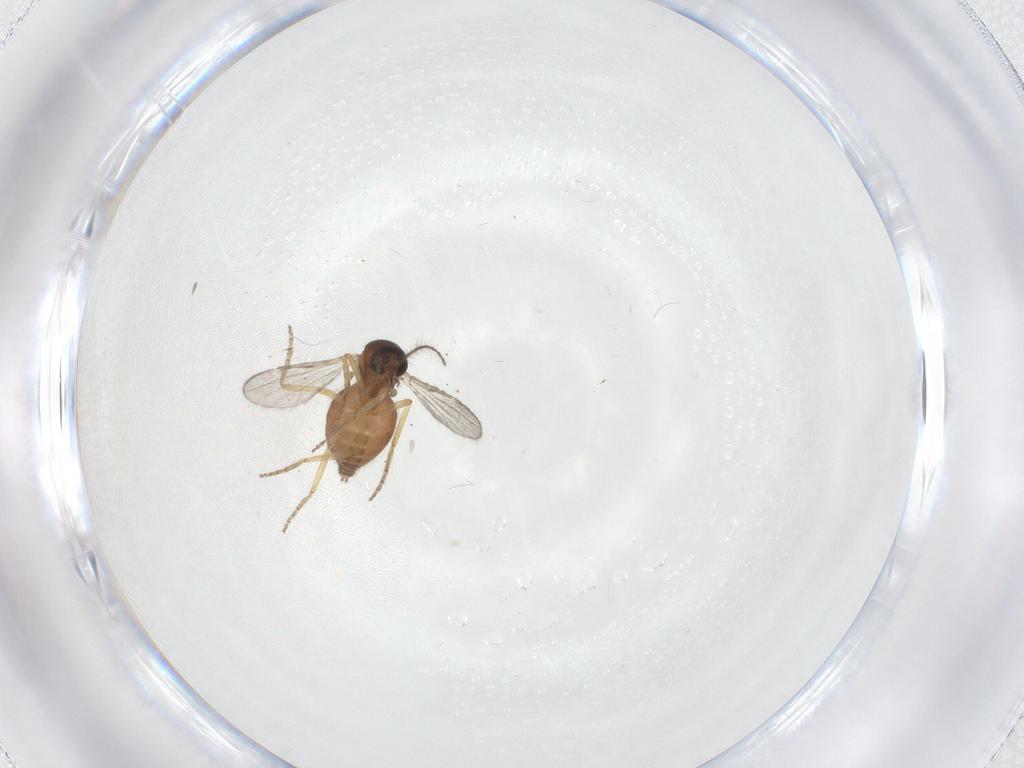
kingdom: Animalia
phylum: Arthropoda
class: Insecta
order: Diptera
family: Ceratopogonidae
